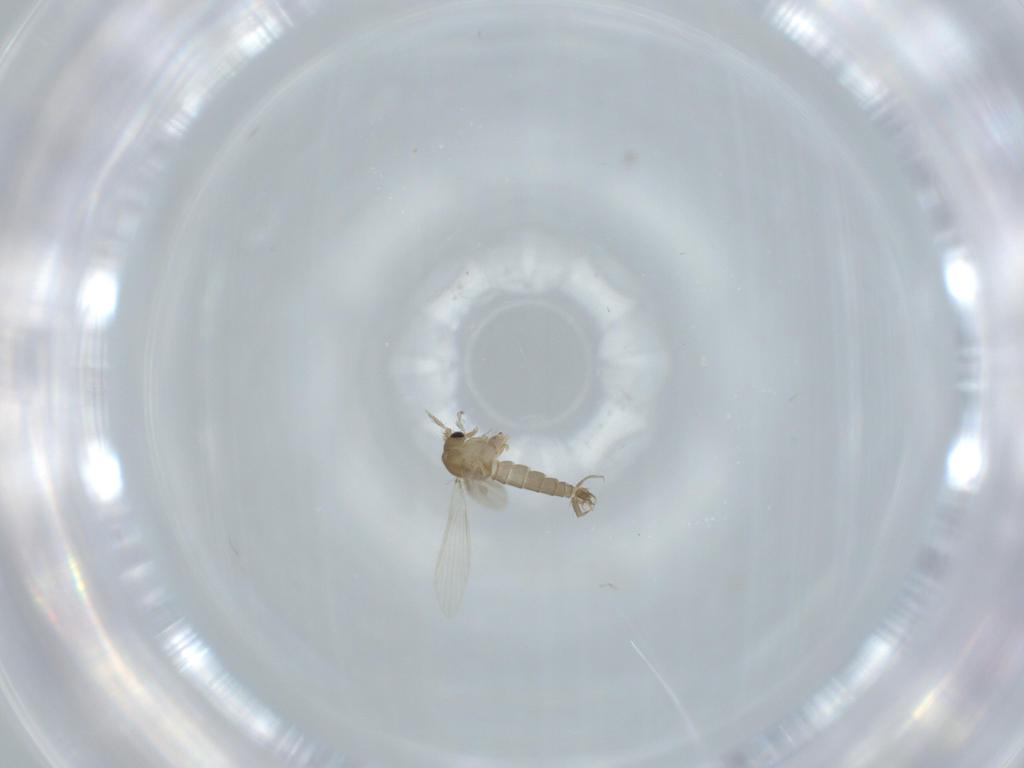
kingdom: Animalia
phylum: Arthropoda
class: Insecta
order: Diptera
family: Psychodidae
